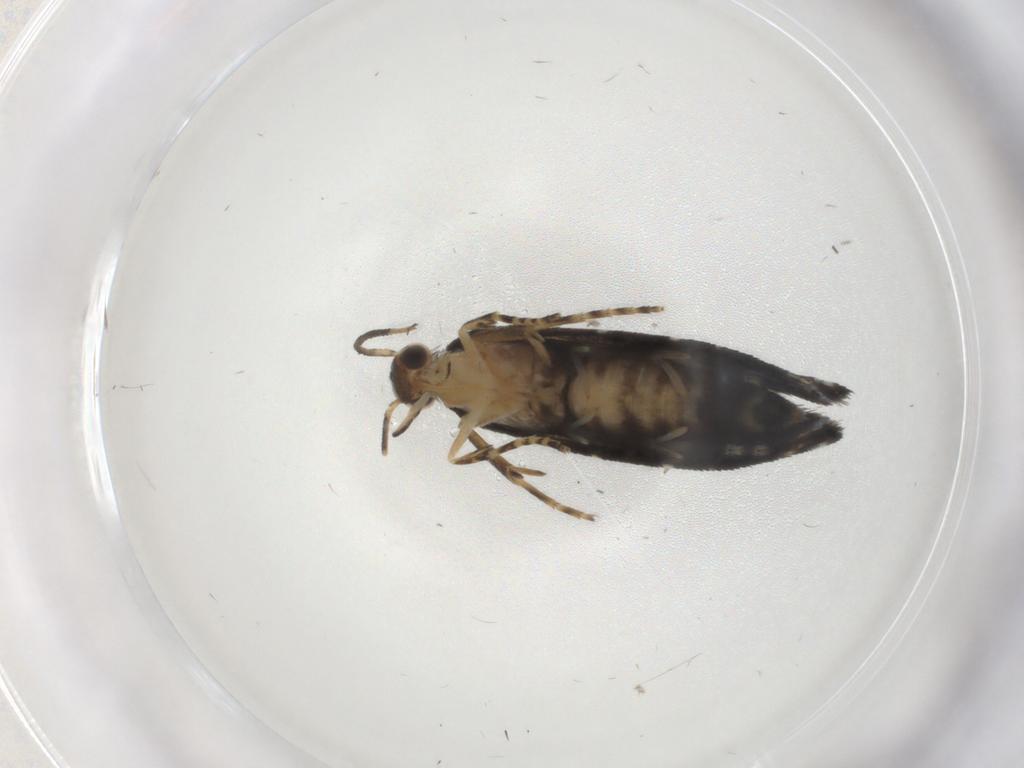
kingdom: Animalia
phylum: Arthropoda
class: Insecta
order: Lepidoptera
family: Glyphipterigidae
